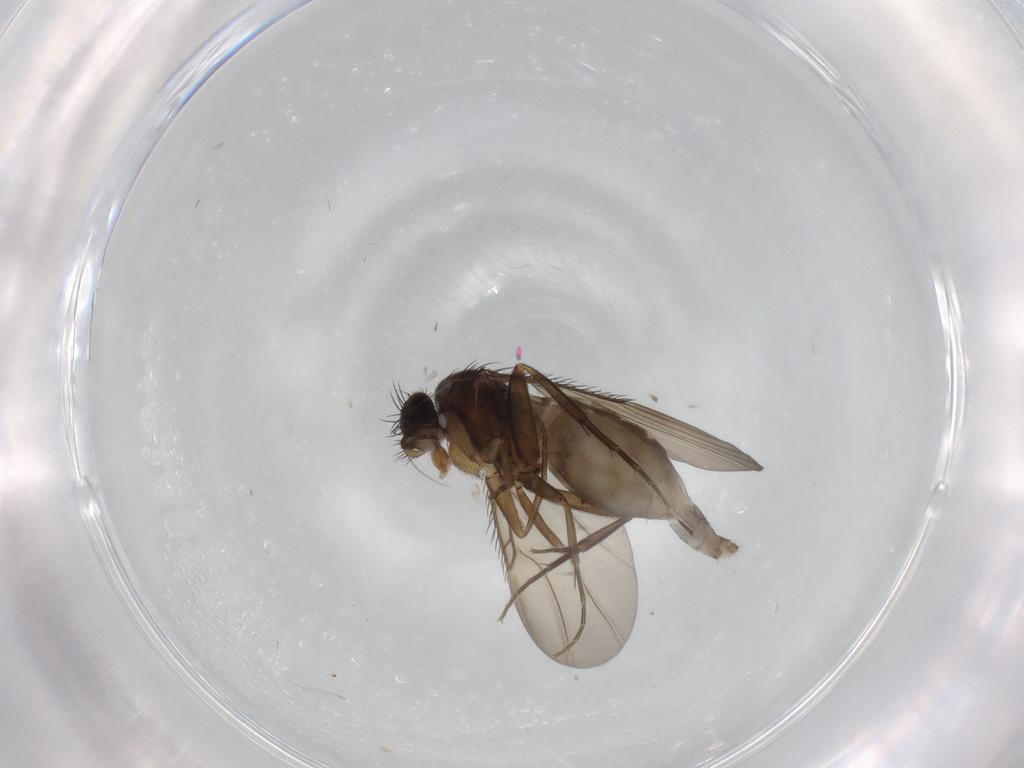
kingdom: Animalia
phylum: Arthropoda
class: Insecta
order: Diptera
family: Phoridae
